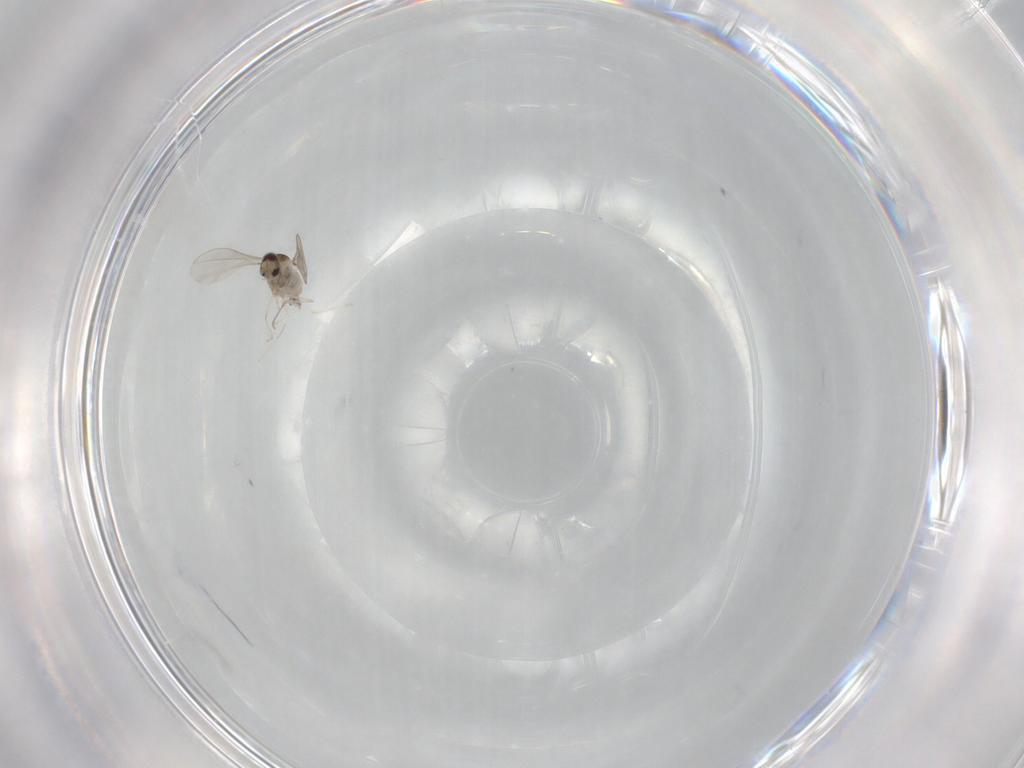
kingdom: Animalia
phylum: Arthropoda
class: Insecta
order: Diptera
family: Cecidomyiidae
